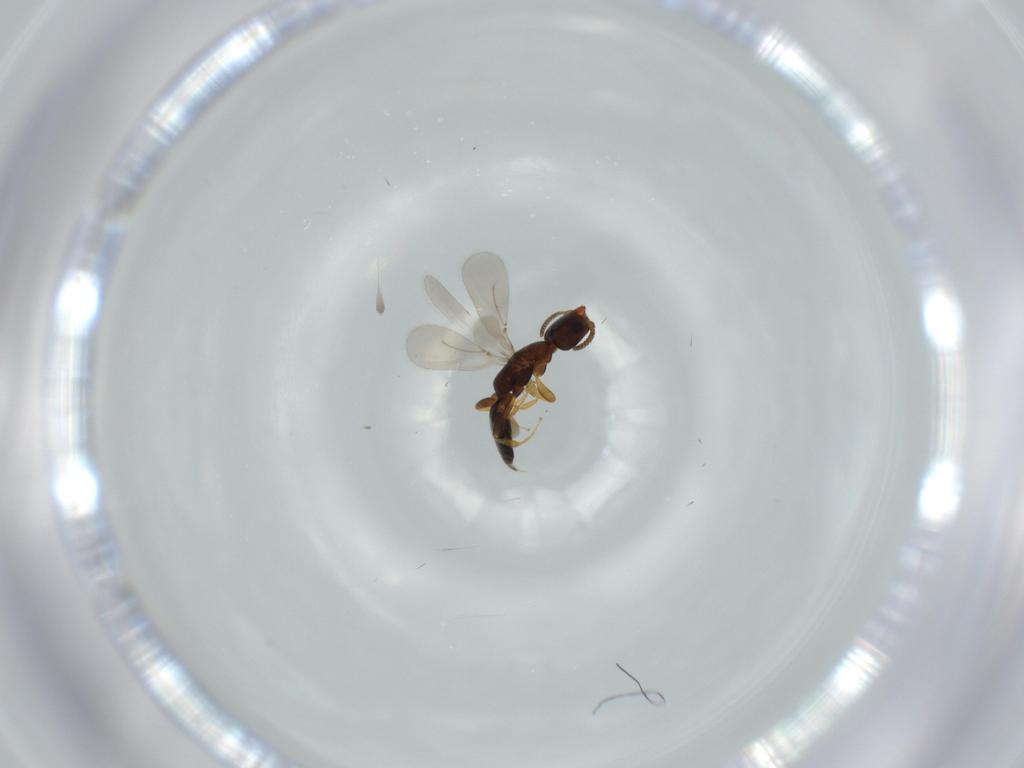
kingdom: Animalia
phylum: Arthropoda
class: Insecta
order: Hymenoptera
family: Bethylidae
